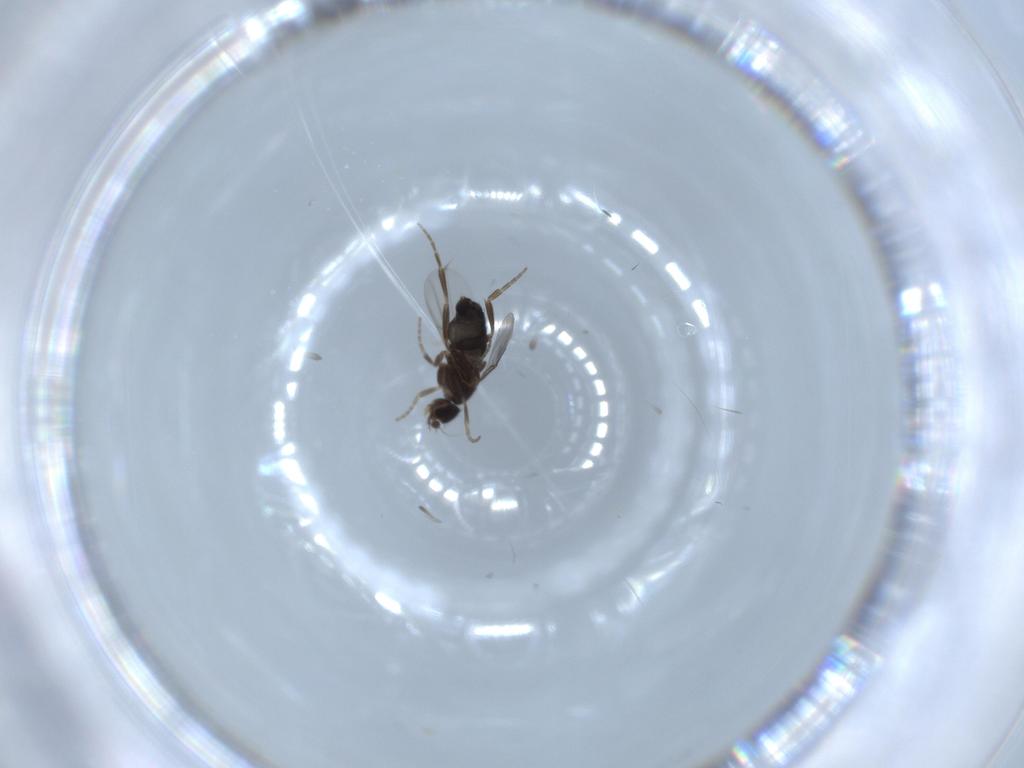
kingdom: Animalia
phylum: Arthropoda
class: Insecta
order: Diptera
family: Phoridae
